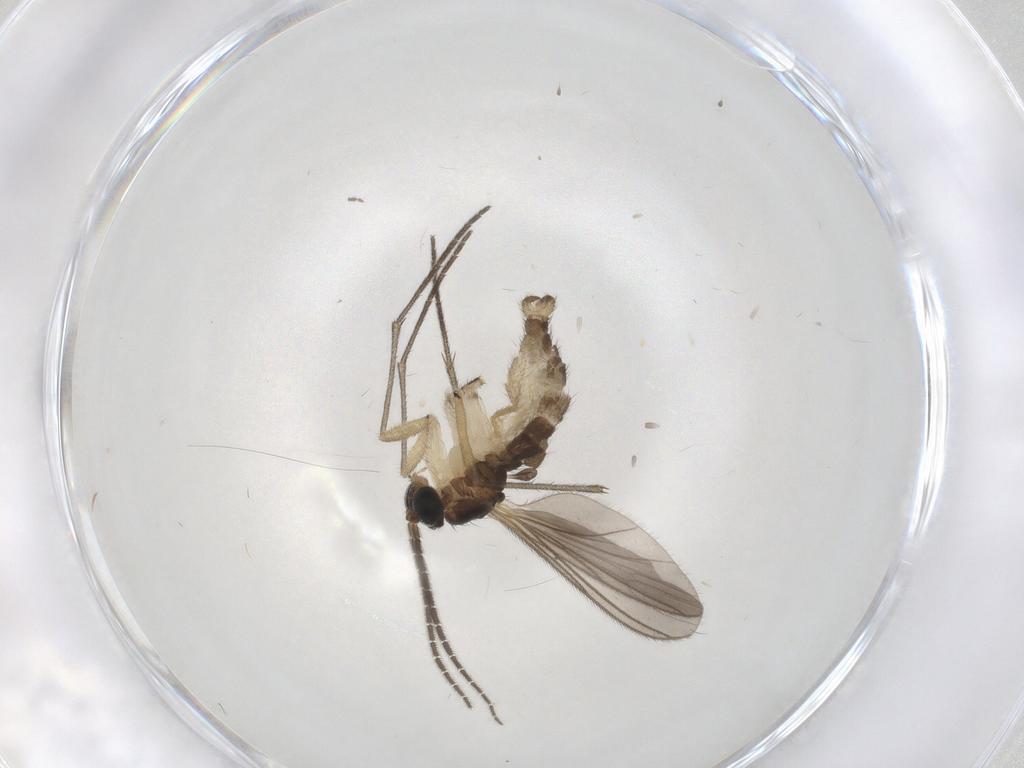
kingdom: Animalia
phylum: Arthropoda
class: Insecta
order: Diptera
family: Sciaridae
